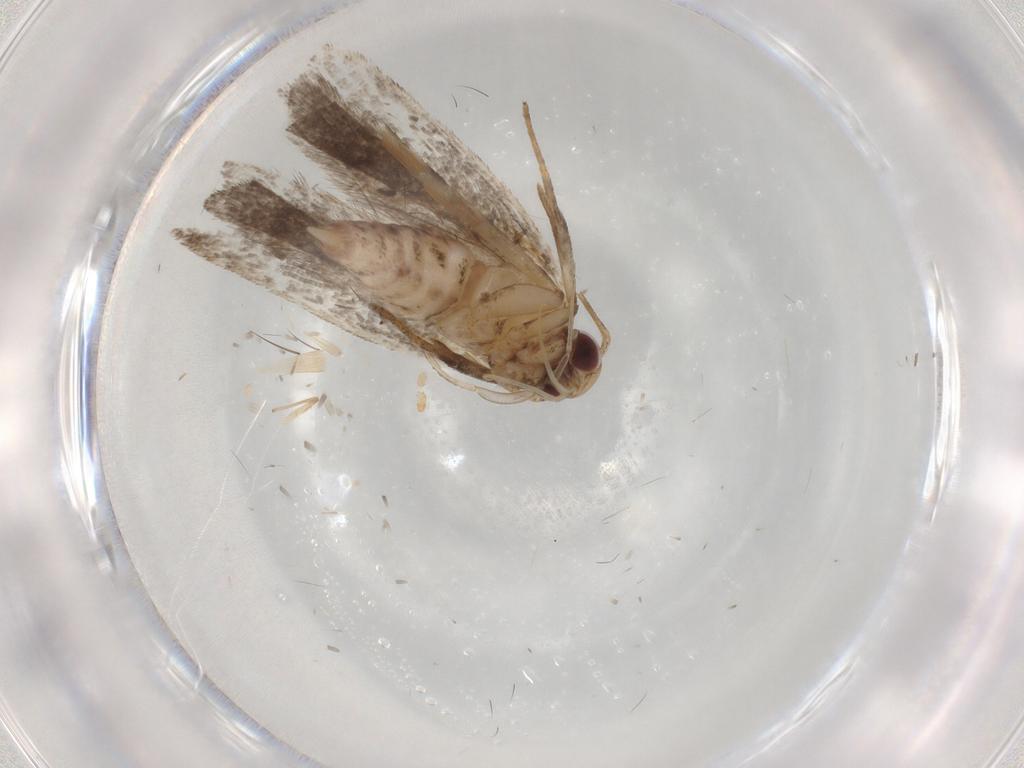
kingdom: Animalia
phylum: Arthropoda
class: Insecta
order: Lepidoptera
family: Gelechiidae
